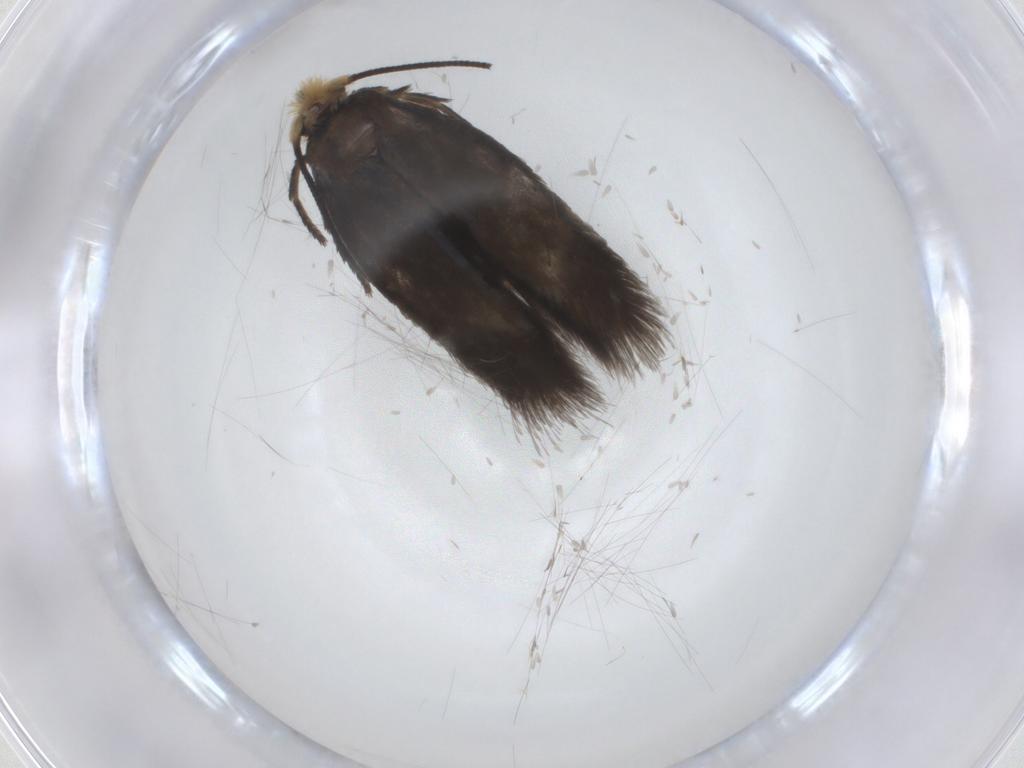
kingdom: Animalia
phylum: Arthropoda
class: Insecta
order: Lepidoptera
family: Nepticulidae
